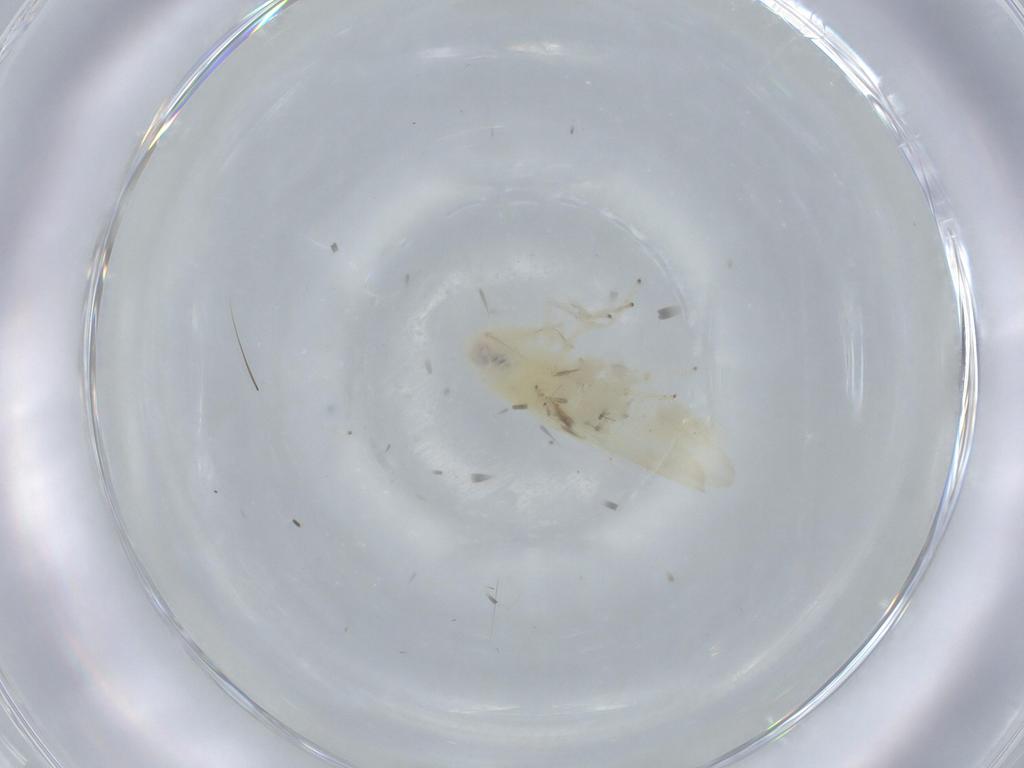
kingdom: Animalia
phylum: Arthropoda
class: Insecta
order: Hemiptera
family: Cicadellidae
